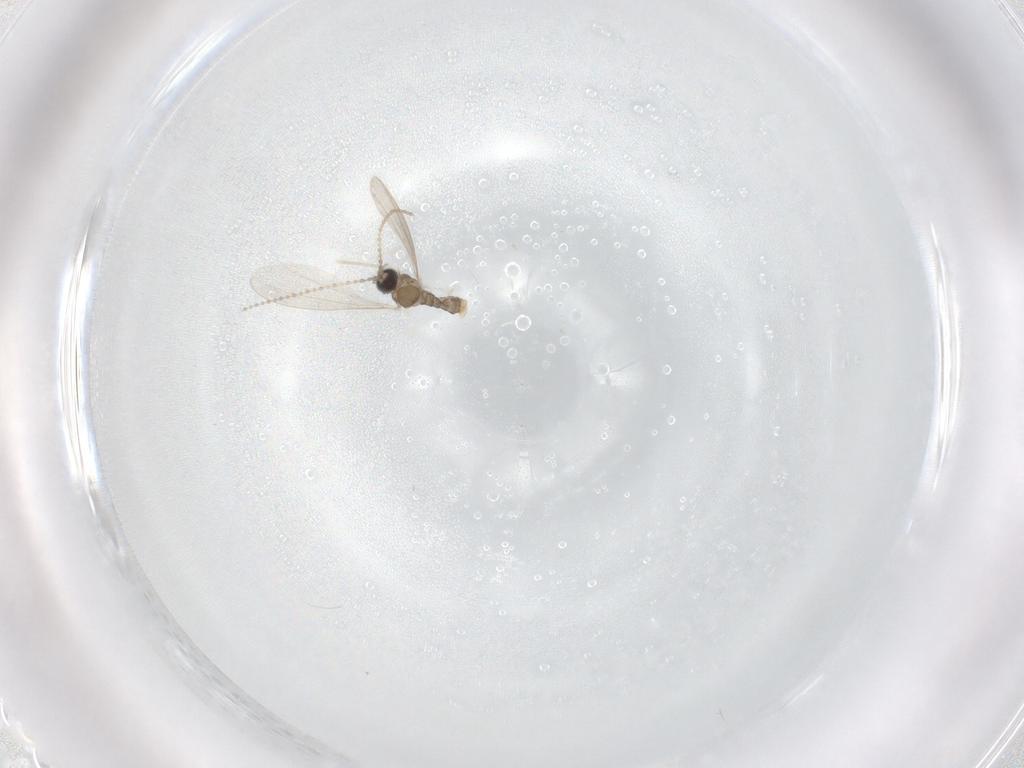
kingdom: Animalia
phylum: Arthropoda
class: Insecta
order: Diptera
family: Cecidomyiidae
